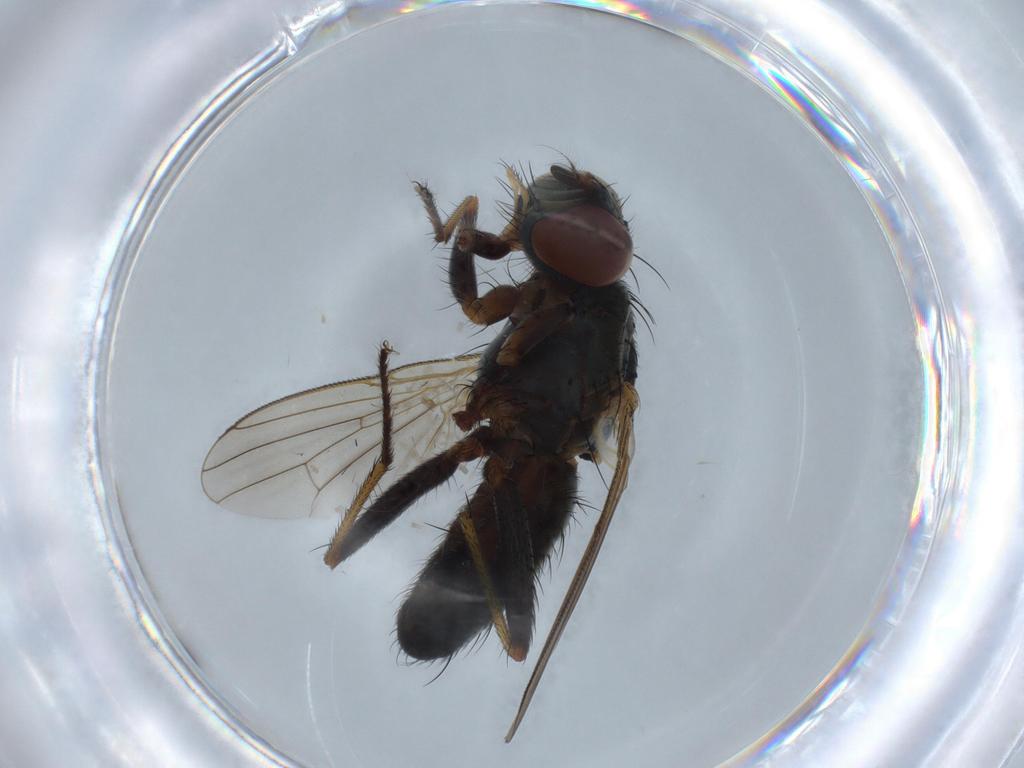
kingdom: Animalia
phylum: Arthropoda
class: Insecta
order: Diptera
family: Muscidae
